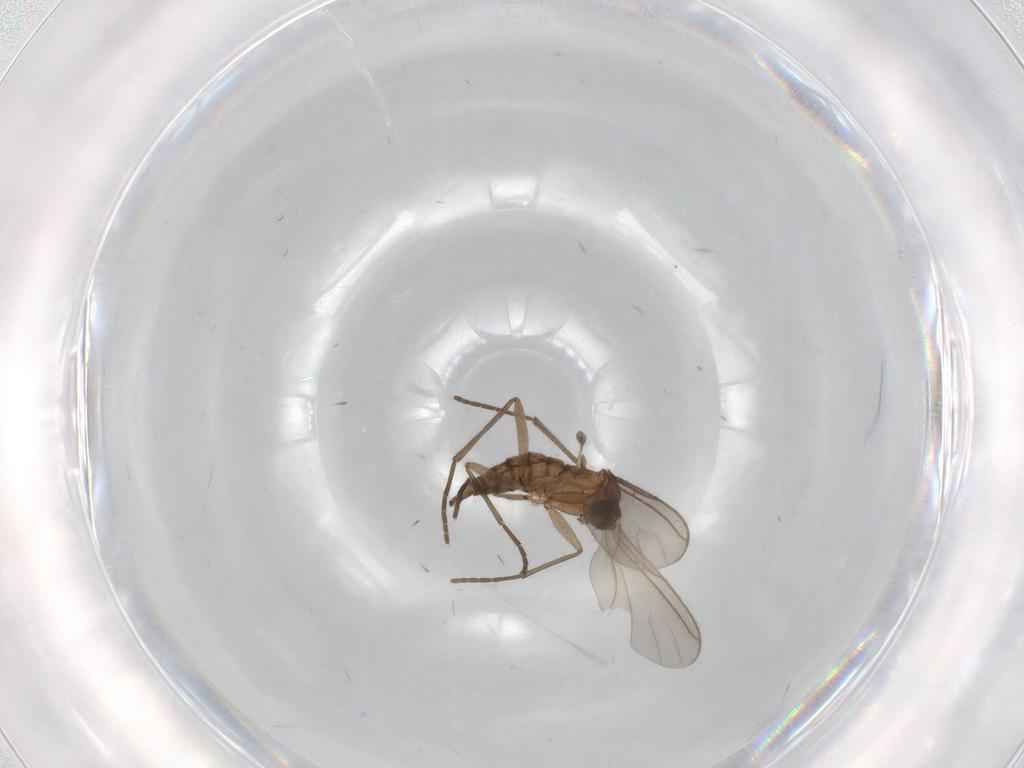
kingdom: Animalia
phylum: Arthropoda
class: Insecta
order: Diptera
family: Sciaridae
